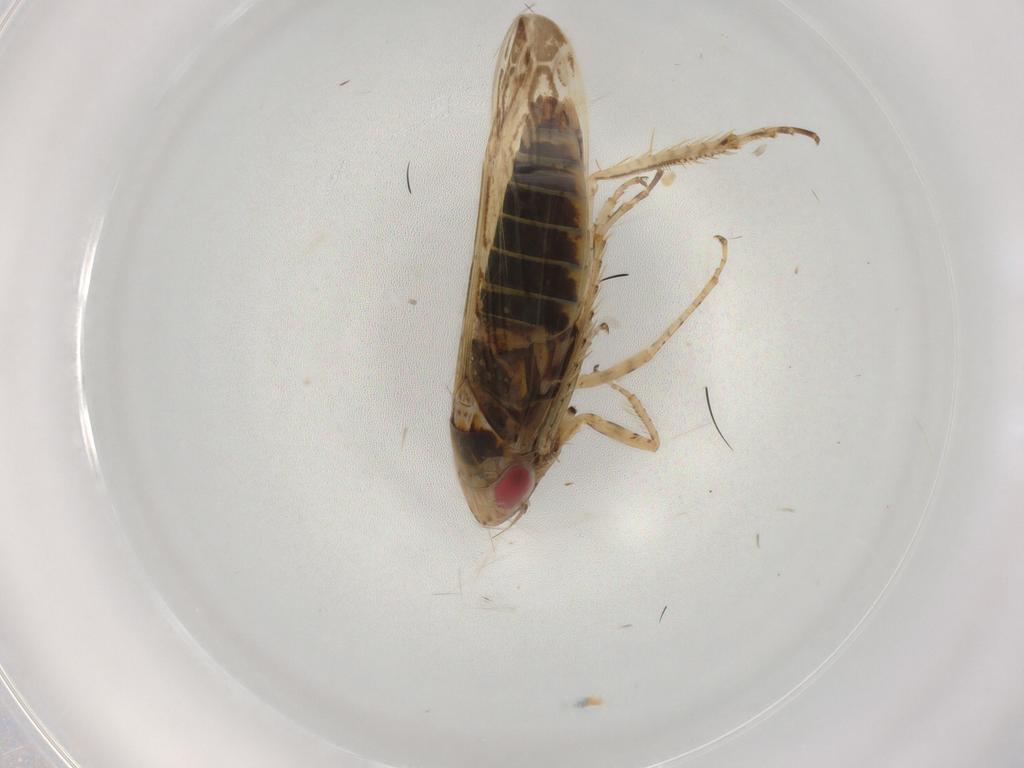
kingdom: Animalia
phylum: Arthropoda
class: Insecta
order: Hemiptera
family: Cicadellidae
